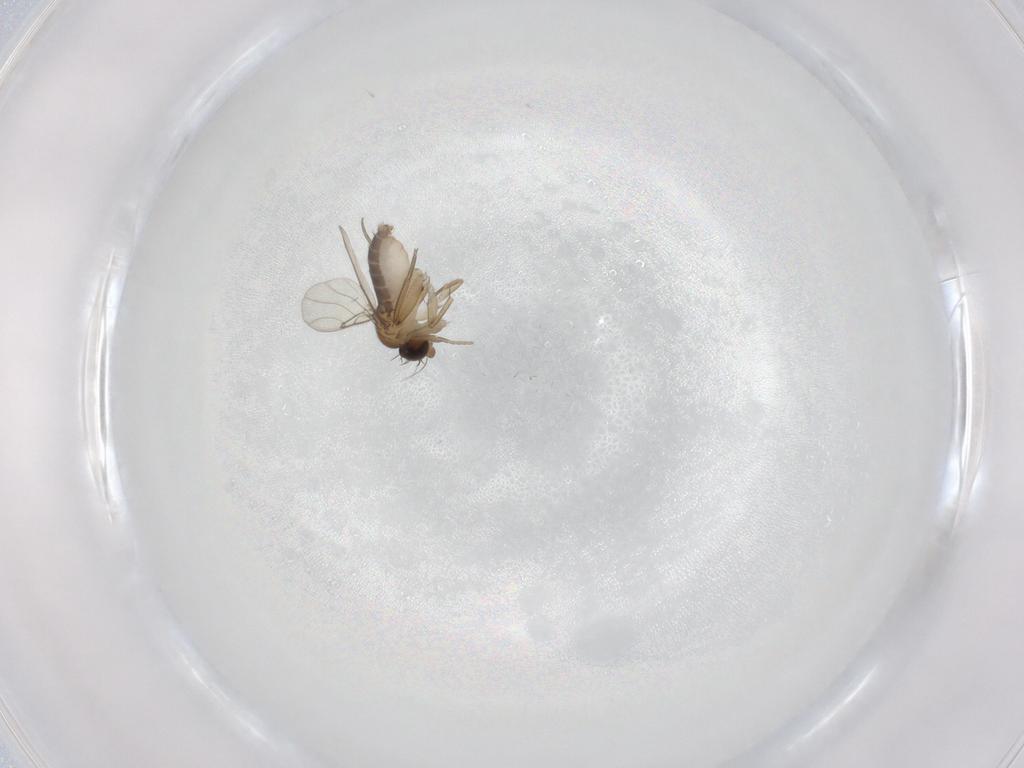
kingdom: Animalia
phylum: Arthropoda
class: Insecta
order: Diptera
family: Phoridae
